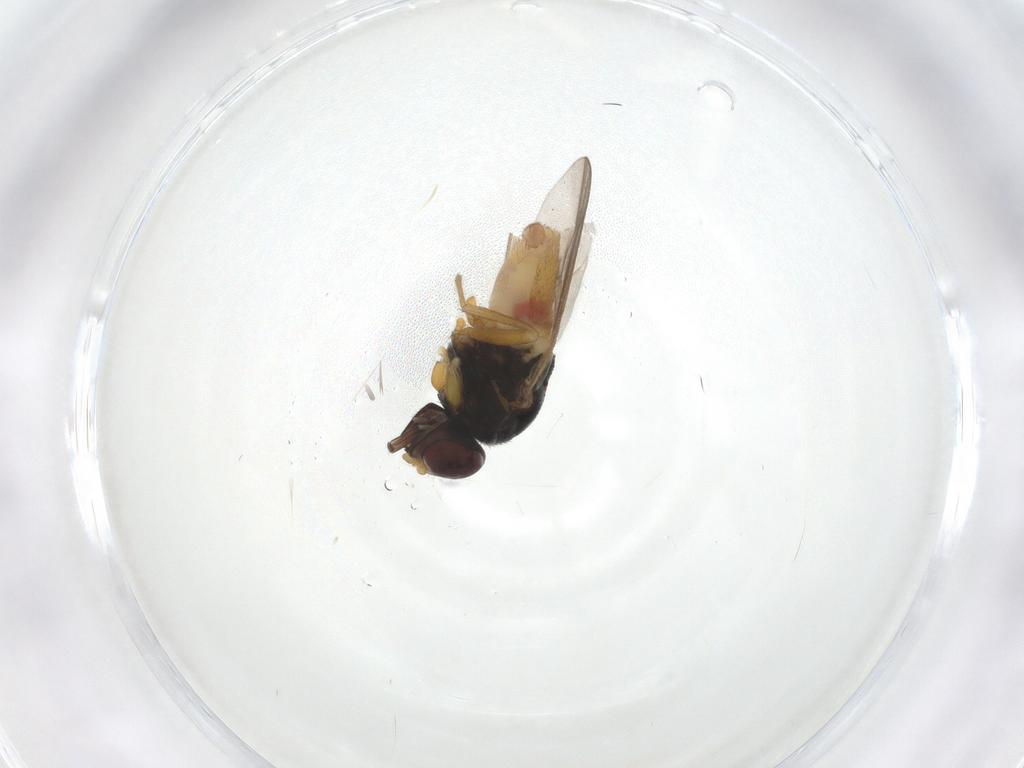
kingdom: Animalia
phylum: Arthropoda
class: Insecta
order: Diptera
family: Chloropidae
